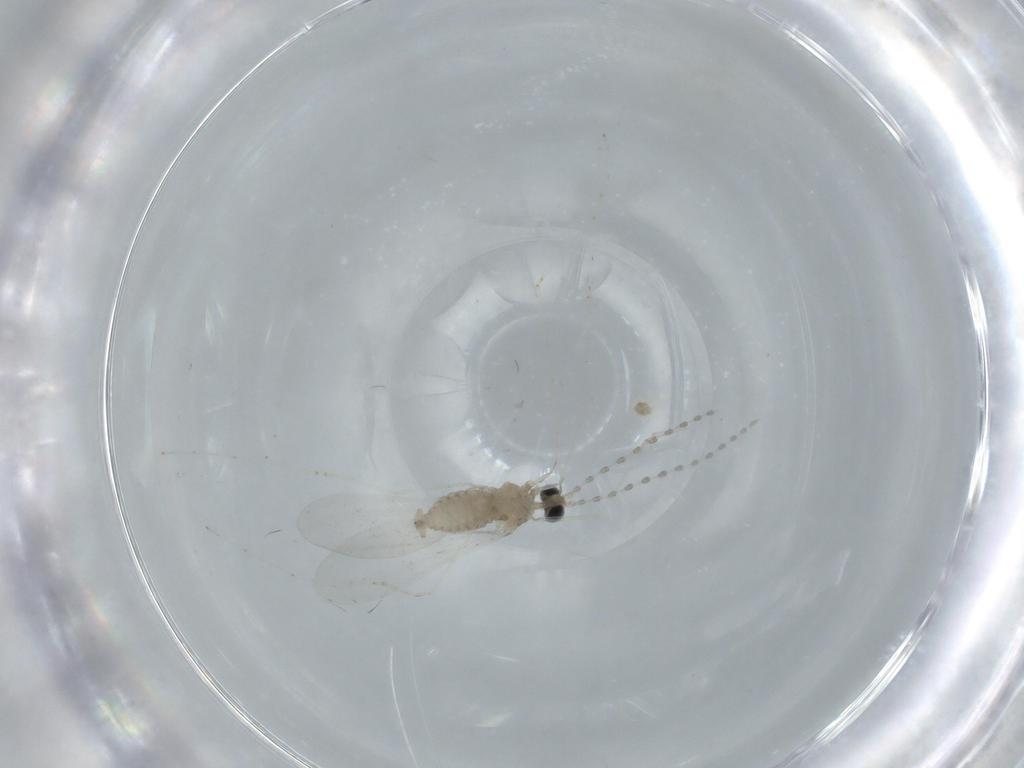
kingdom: Animalia
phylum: Arthropoda
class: Insecta
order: Diptera
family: Cecidomyiidae
